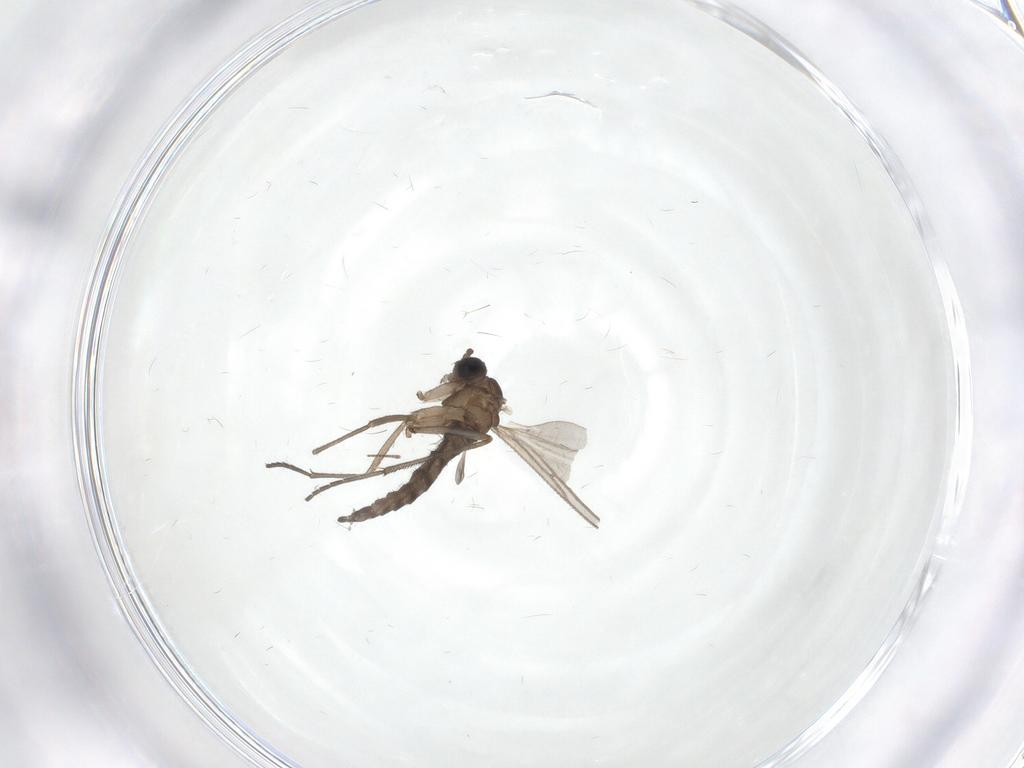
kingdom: Animalia
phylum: Arthropoda
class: Insecta
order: Diptera
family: Sciaridae
